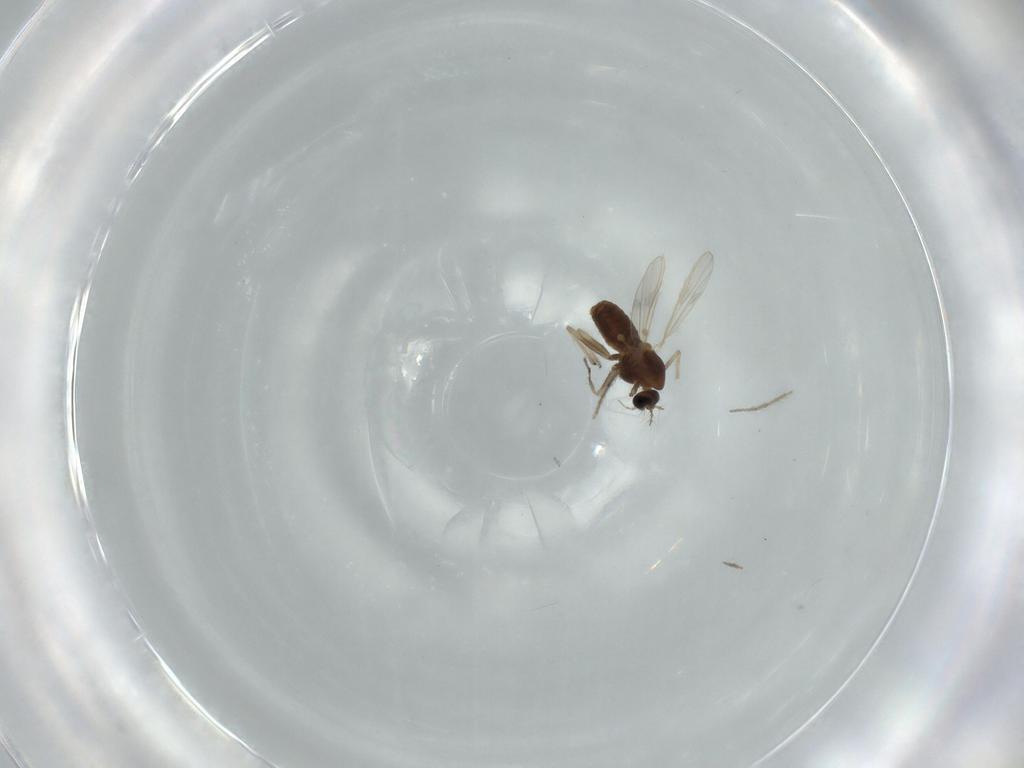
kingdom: Animalia
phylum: Arthropoda
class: Insecta
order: Diptera
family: Chironomidae
